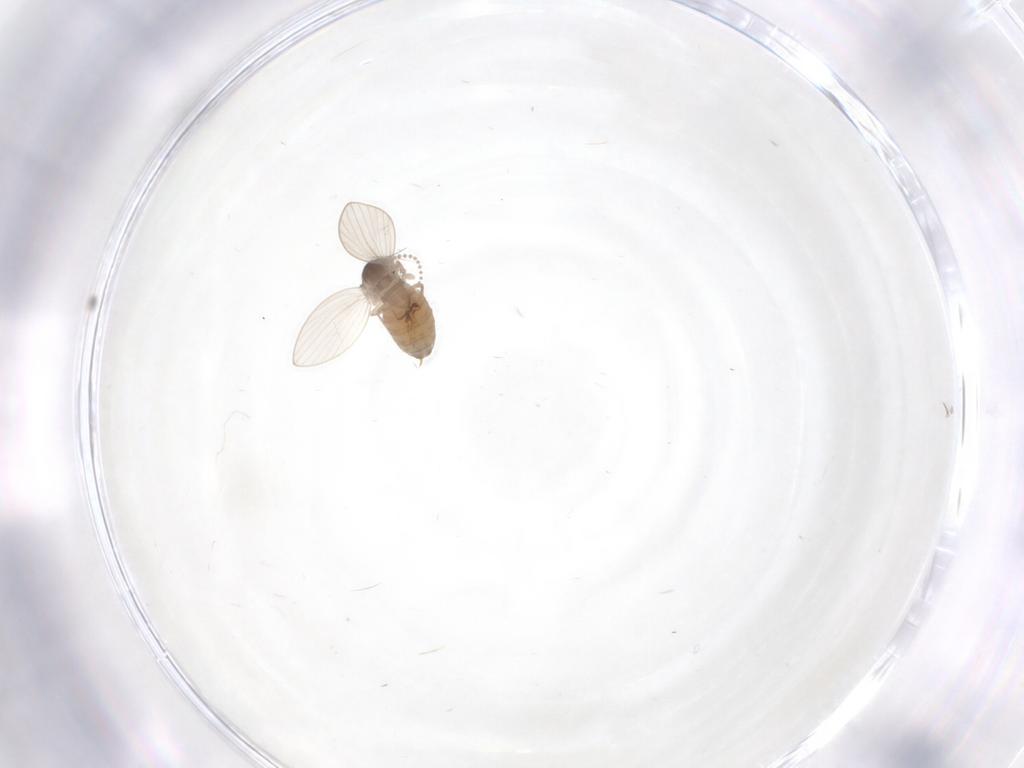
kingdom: Animalia
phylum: Arthropoda
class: Insecta
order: Diptera
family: Psychodidae
